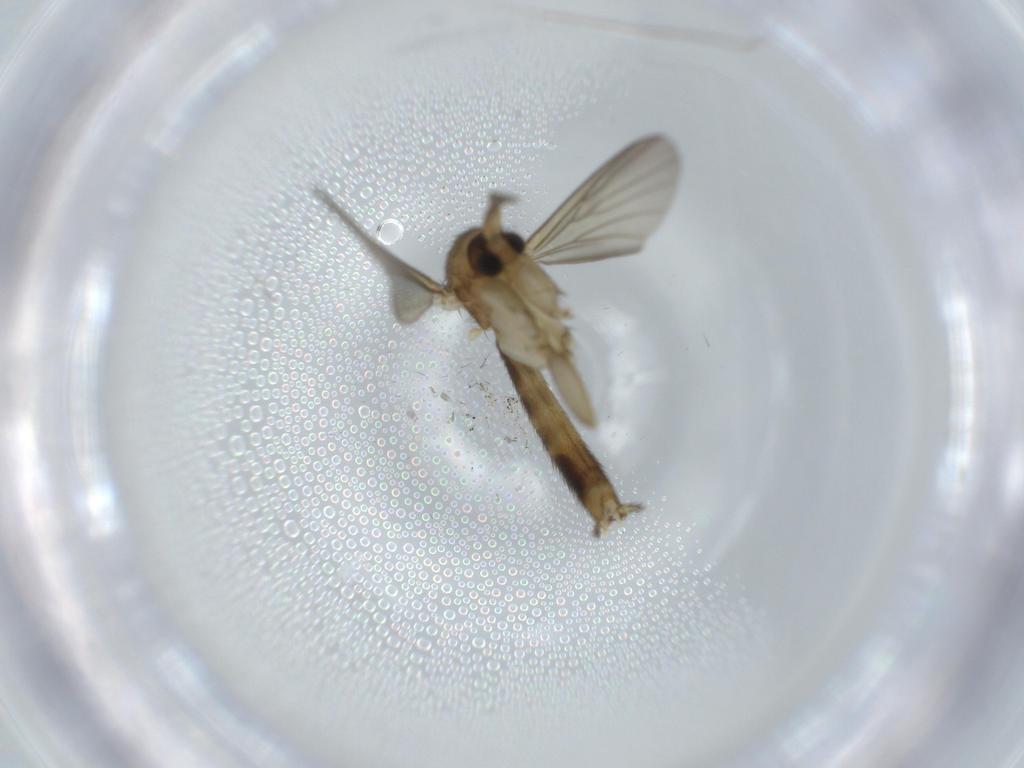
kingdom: Animalia
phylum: Arthropoda
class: Insecta
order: Diptera
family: Mycetophilidae
